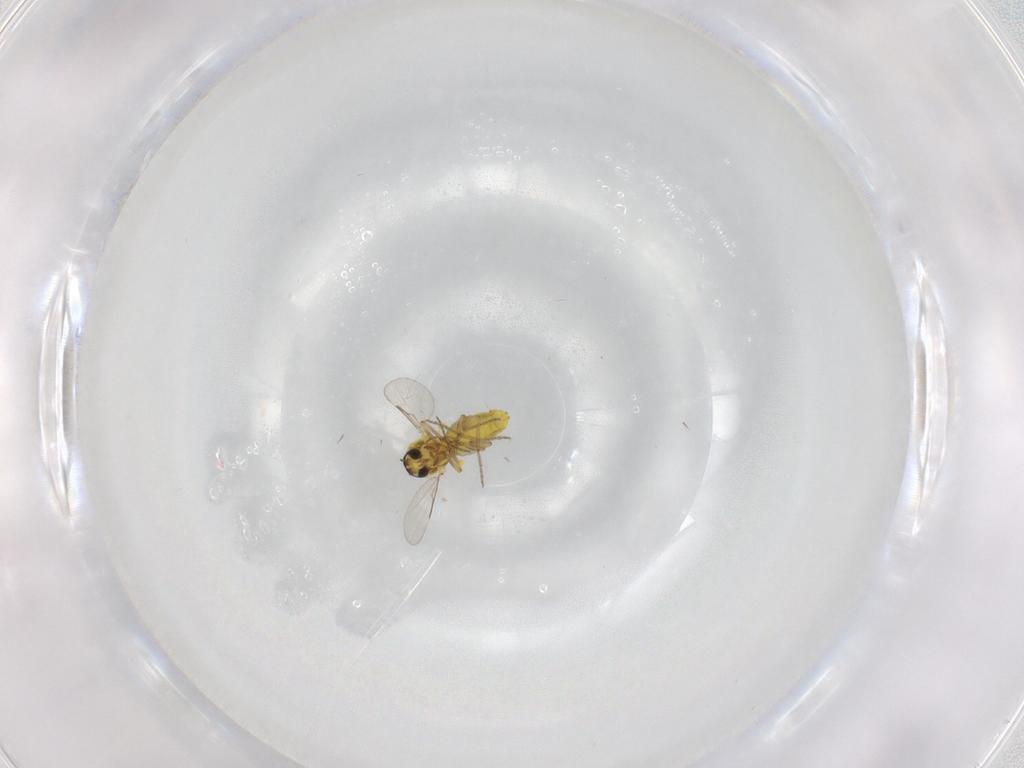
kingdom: Animalia
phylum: Arthropoda
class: Insecta
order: Diptera
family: Ceratopogonidae
